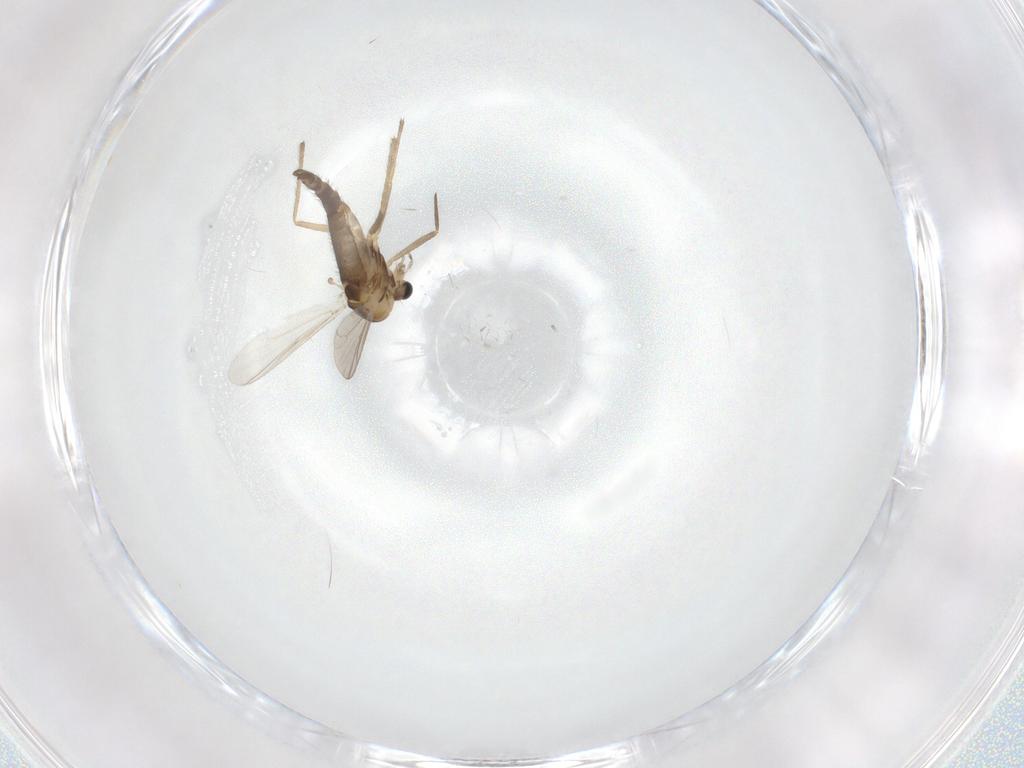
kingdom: Animalia
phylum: Arthropoda
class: Insecta
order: Diptera
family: Chironomidae
